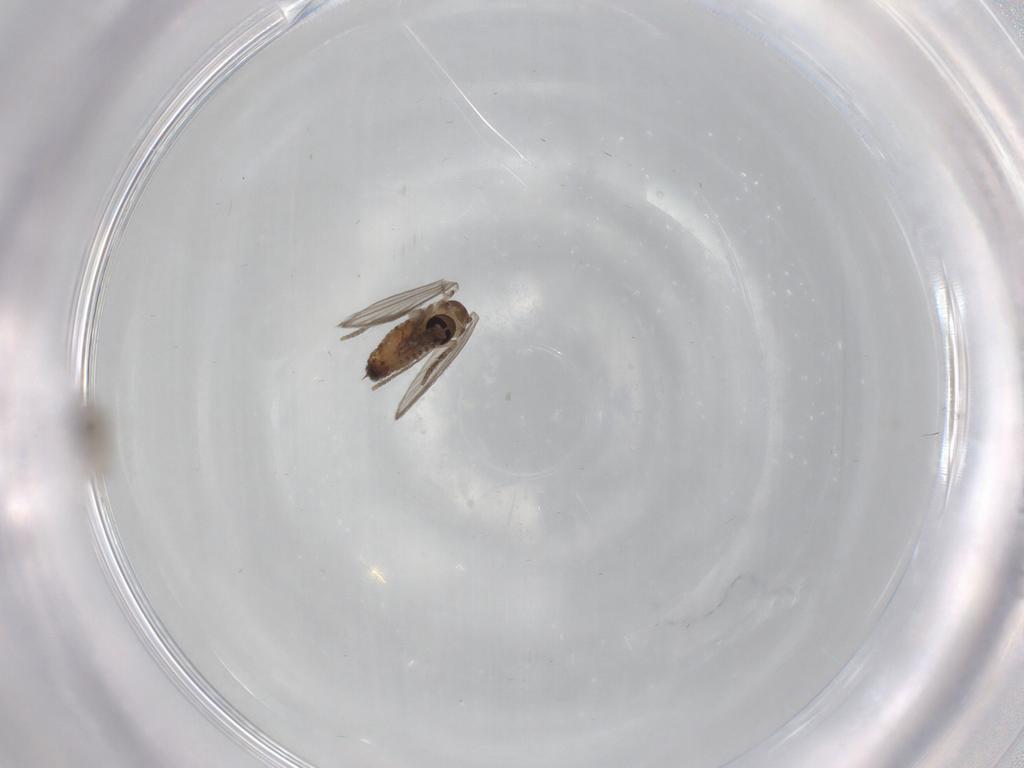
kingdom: Animalia
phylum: Arthropoda
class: Insecta
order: Diptera
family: Psychodidae
